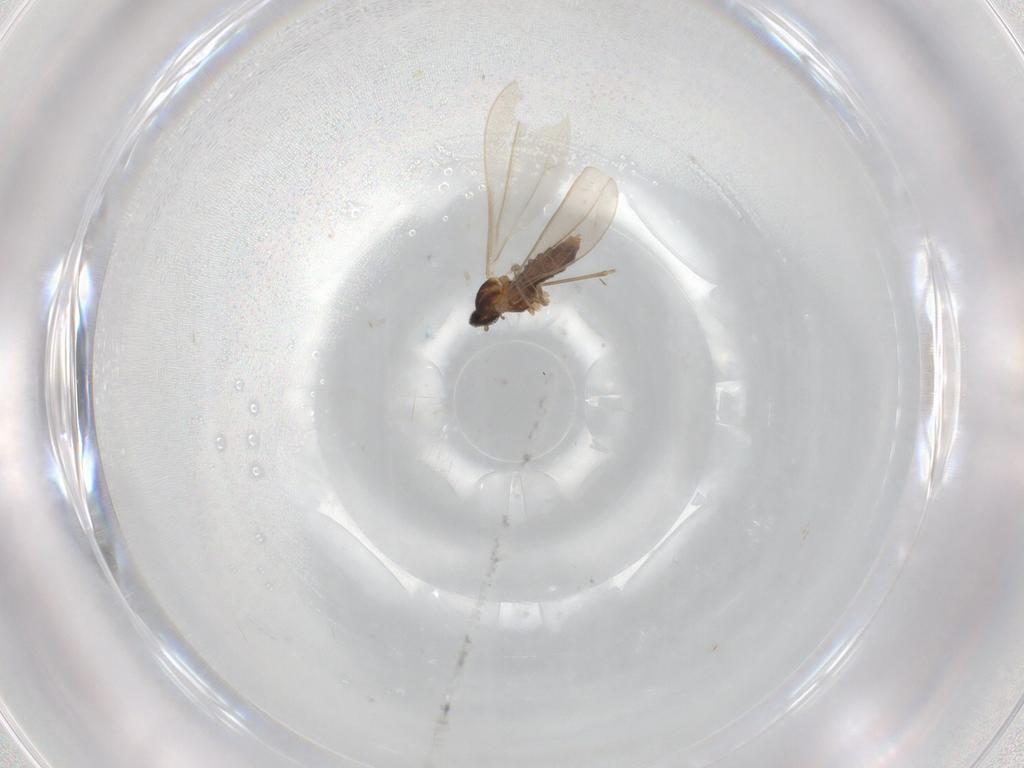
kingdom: Animalia
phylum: Arthropoda
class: Insecta
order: Diptera
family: Cecidomyiidae
